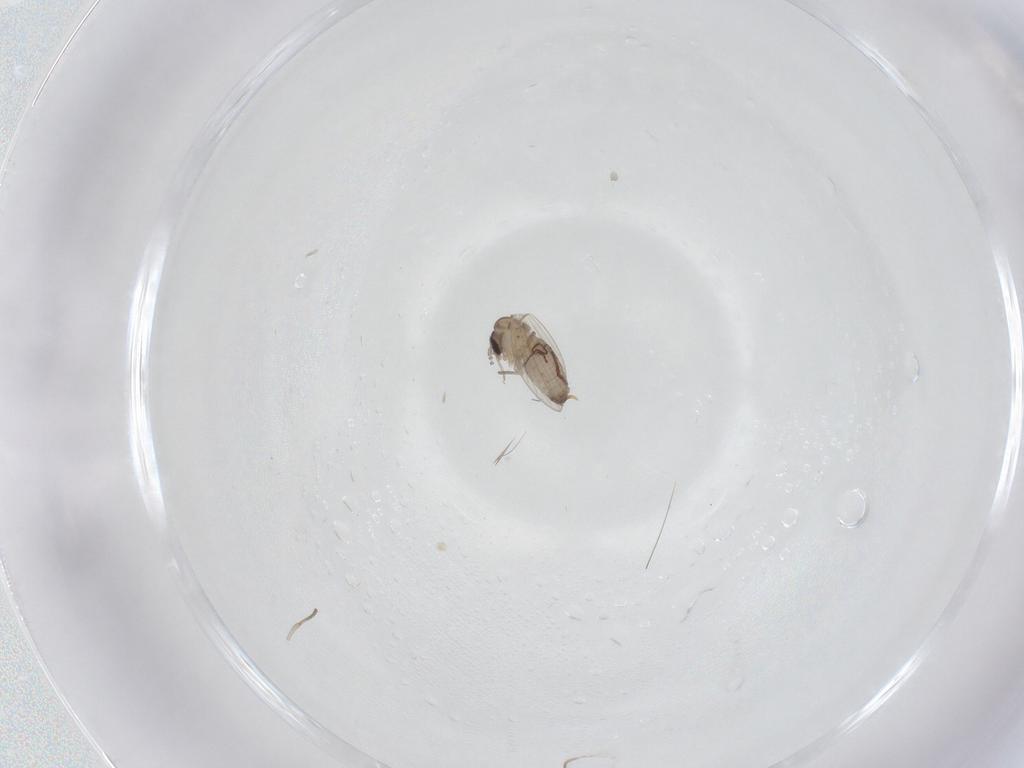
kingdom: Animalia
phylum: Arthropoda
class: Insecta
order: Diptera
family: Psychodidae
